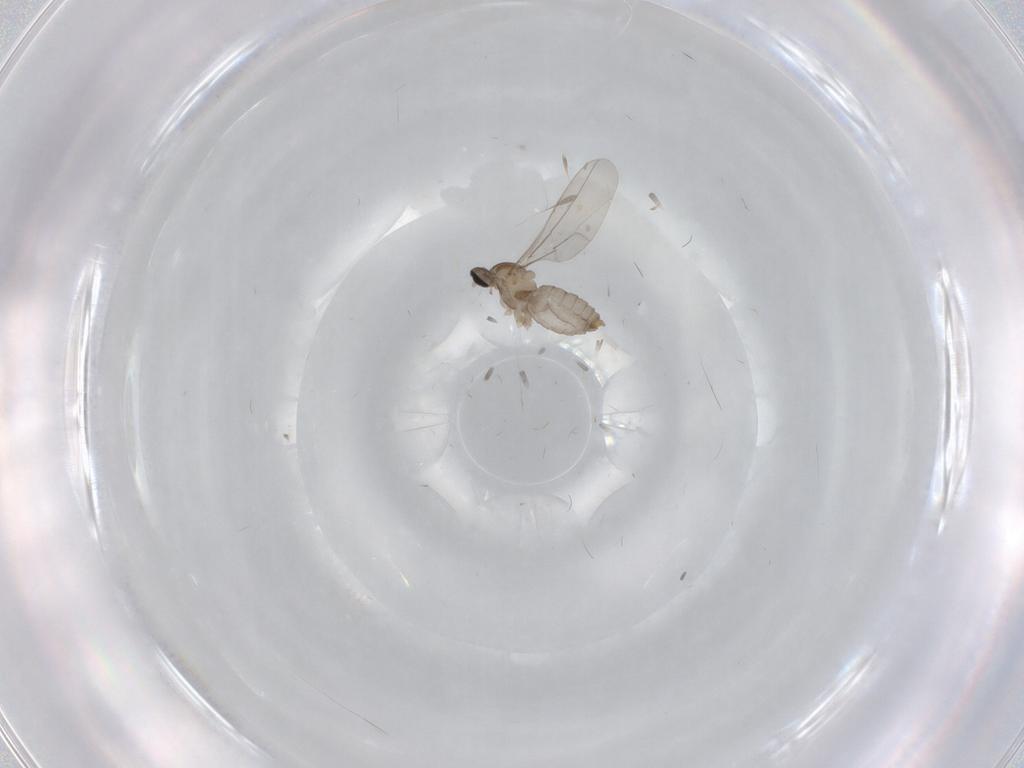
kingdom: Animalia
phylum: Arthropoda
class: Insecta
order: Diptera
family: Cecidomyiidae
